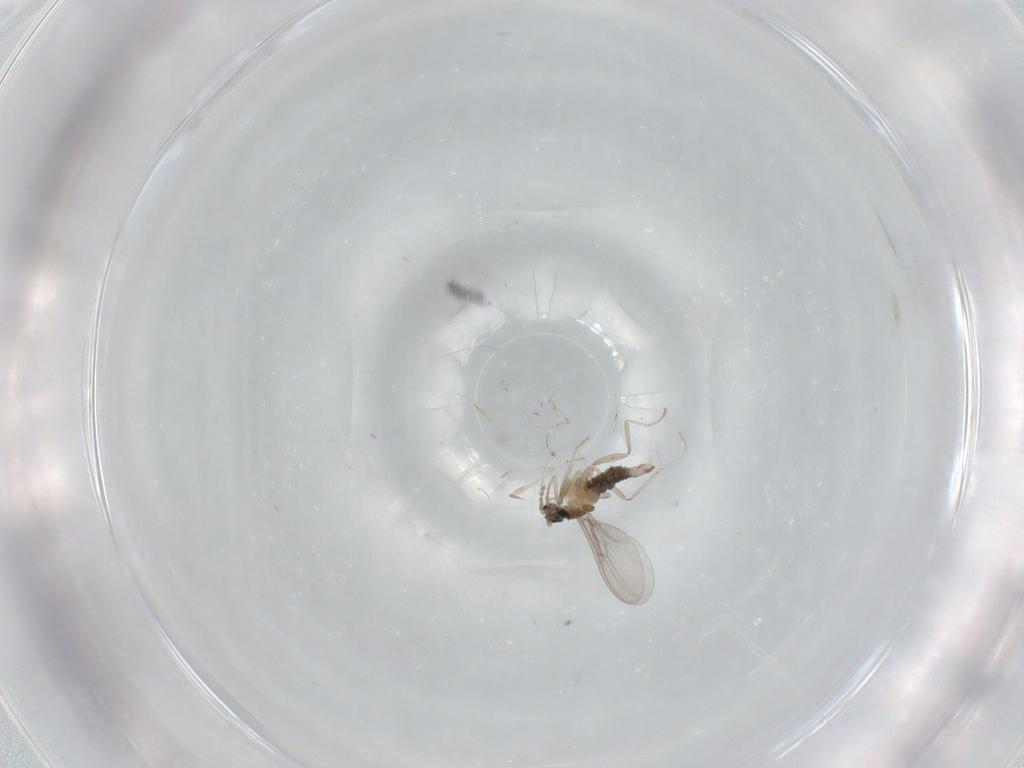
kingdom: Animalia
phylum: Arthropoda
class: Insecta
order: Diptera
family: Cecidomyiidae
